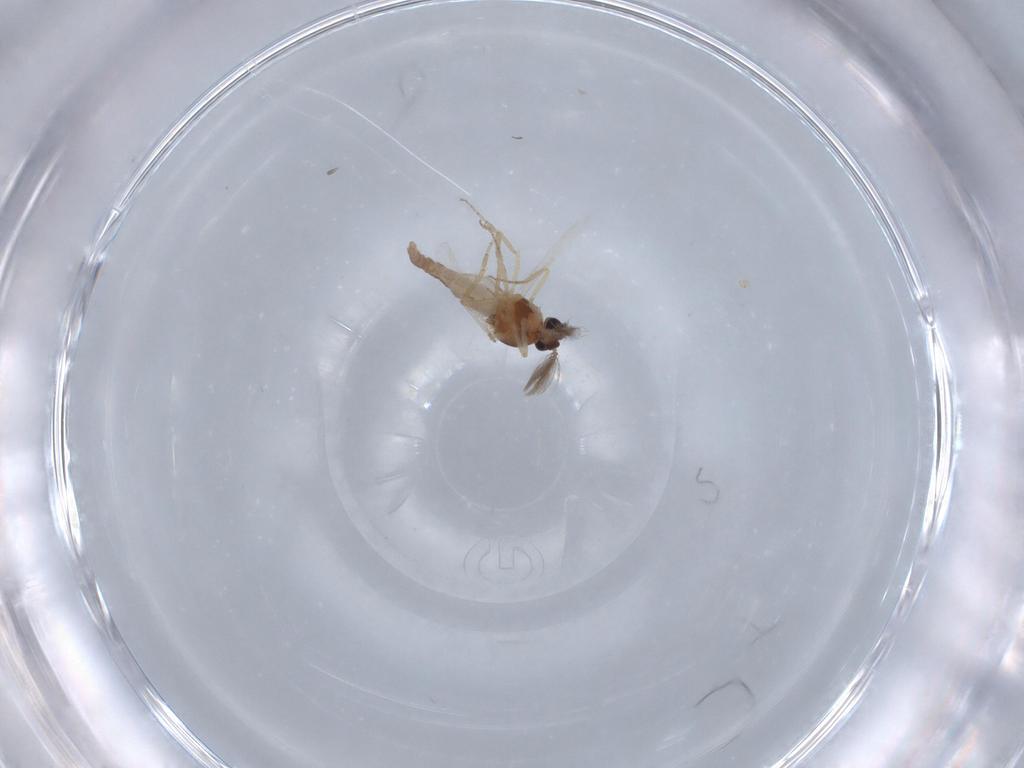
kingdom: Animalia
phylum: Arthropoda
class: Insecta
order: Diptera
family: Ceratopogonidae
